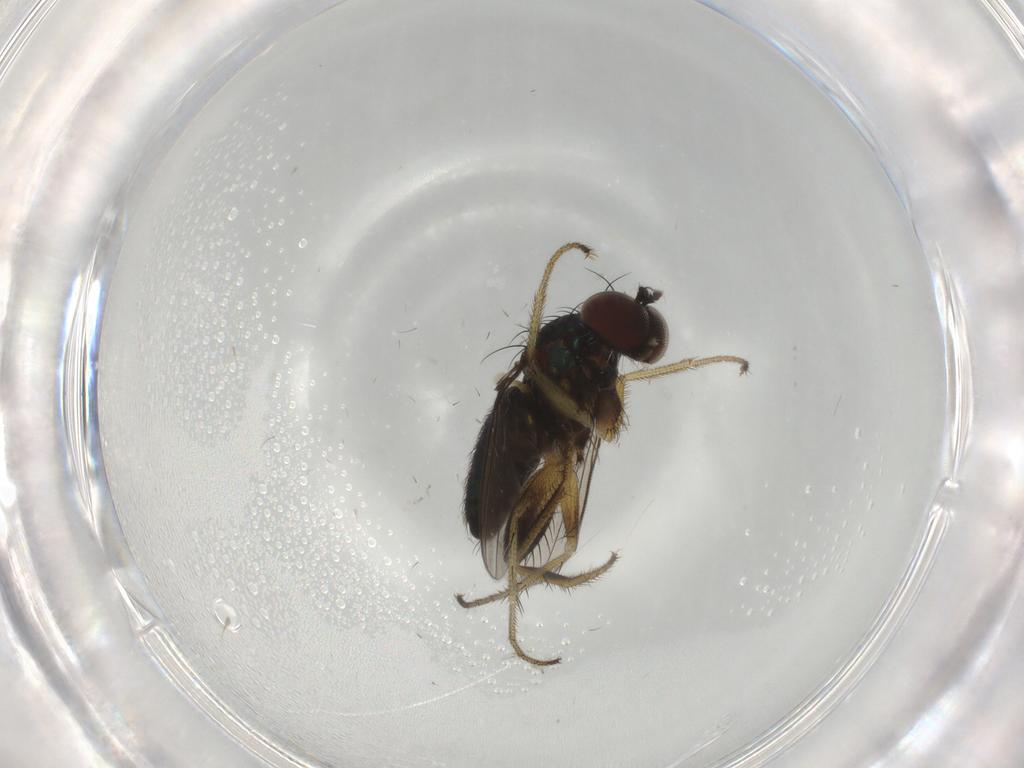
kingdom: Animalia
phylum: Arthropoda
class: Insecta
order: Diptera
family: Dolichopodidae
